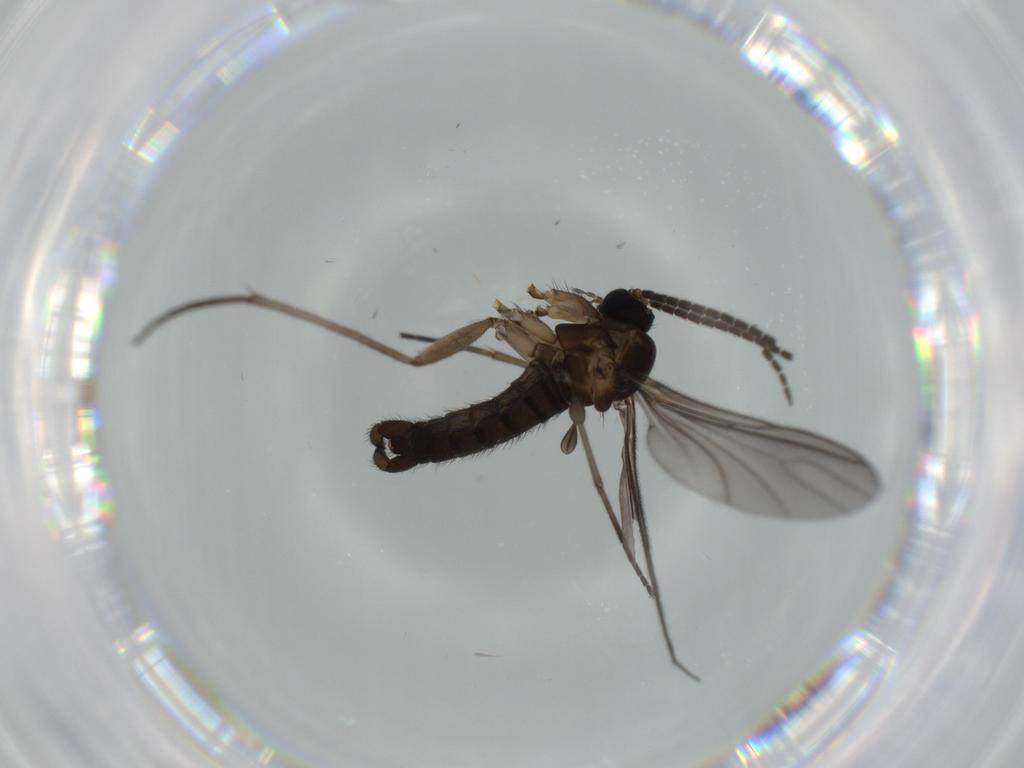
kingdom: Animalia
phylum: Arthropoda
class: Insecta
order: Diptera
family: Sciaridae
